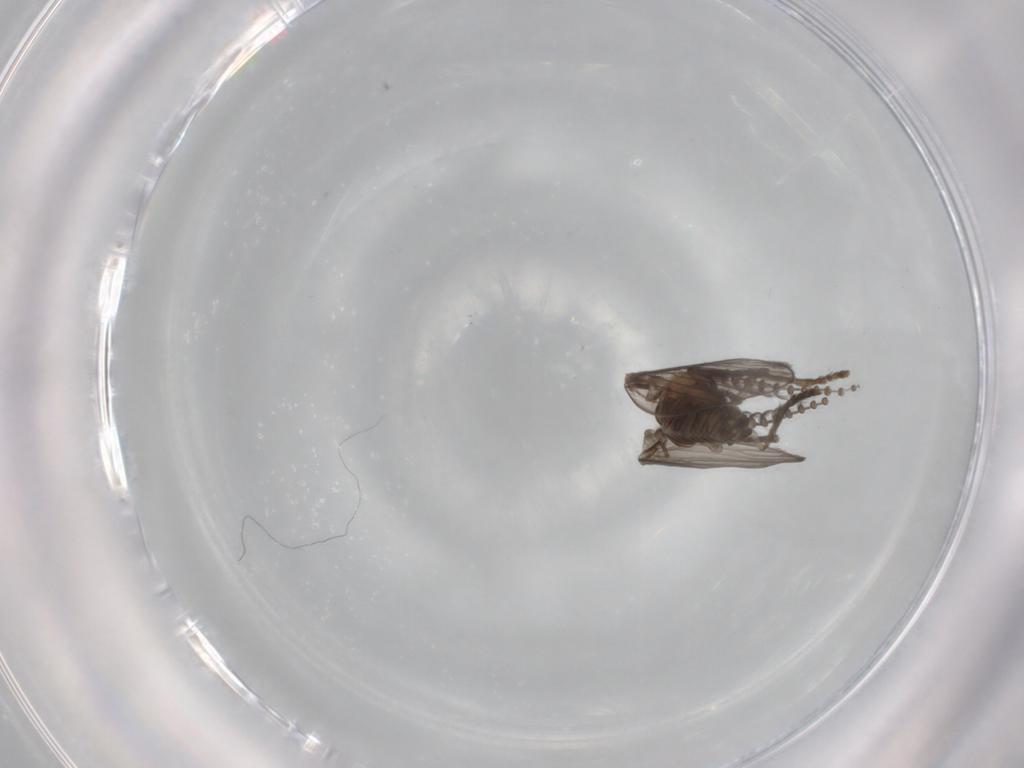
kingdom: Animalia
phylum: Arthropoda
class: Insecta
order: Diptera
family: Psychodidae
